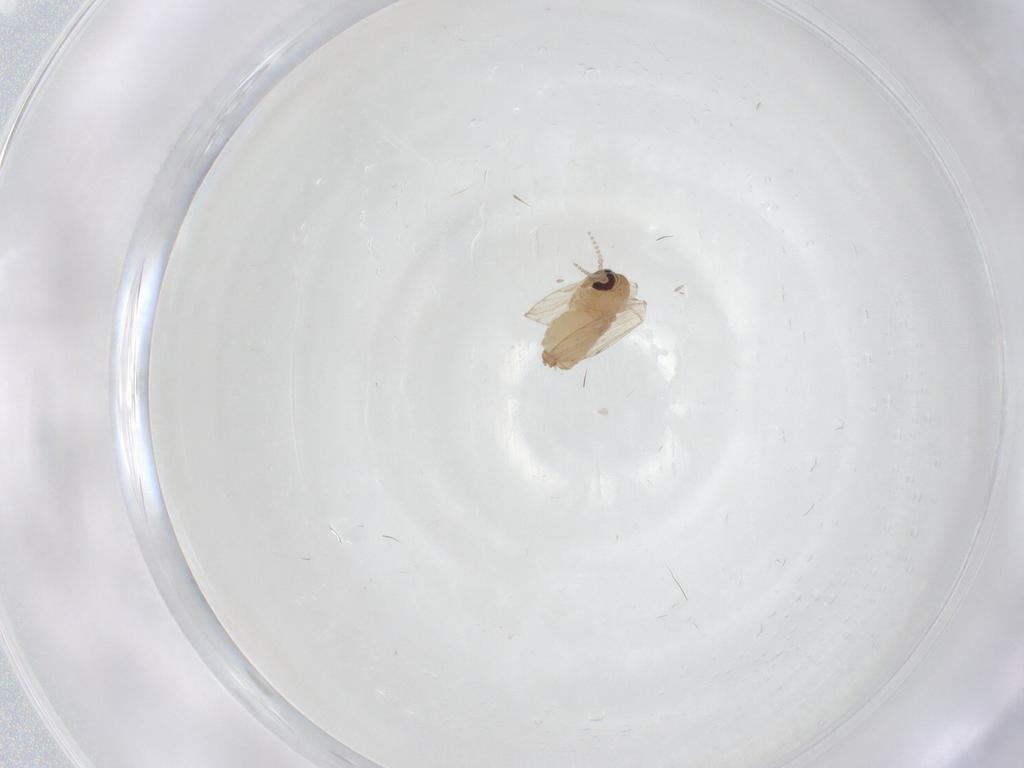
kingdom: Animalia
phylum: Arthropoda
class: Insecta
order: Diptera
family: Psychodidae
